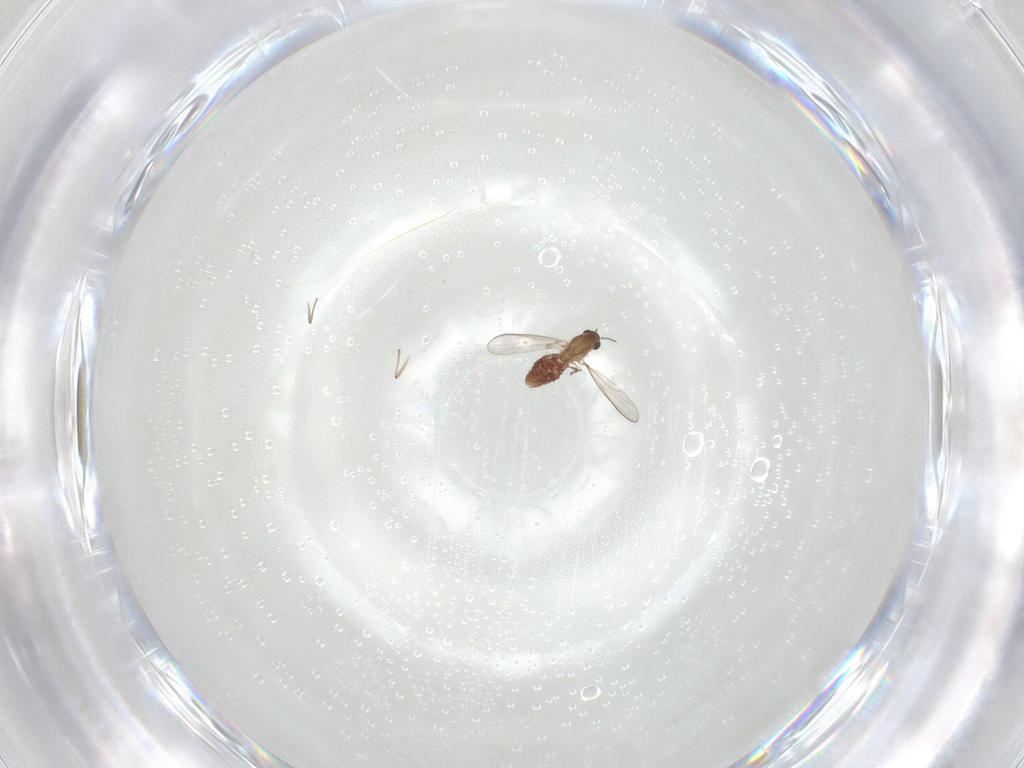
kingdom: Animalia
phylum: Arthropoda
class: Insecta
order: Diptera
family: Chironomidae
